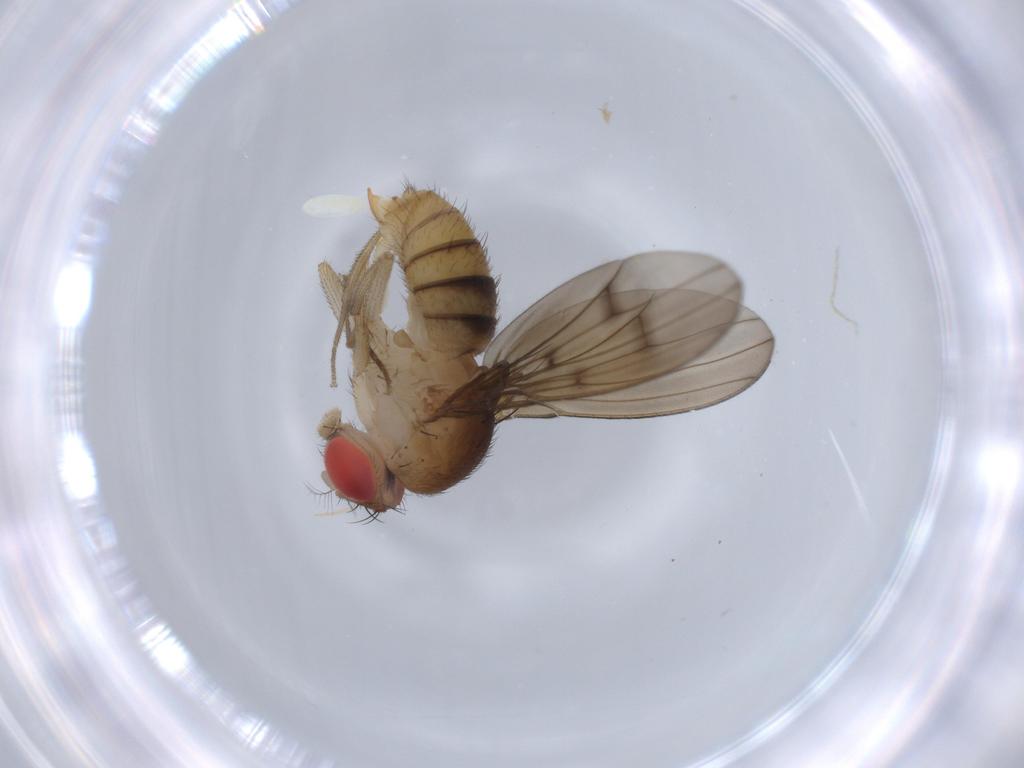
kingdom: Animalia
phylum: Arthropoda
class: Insecta
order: Diptera
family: Drosophilidae
